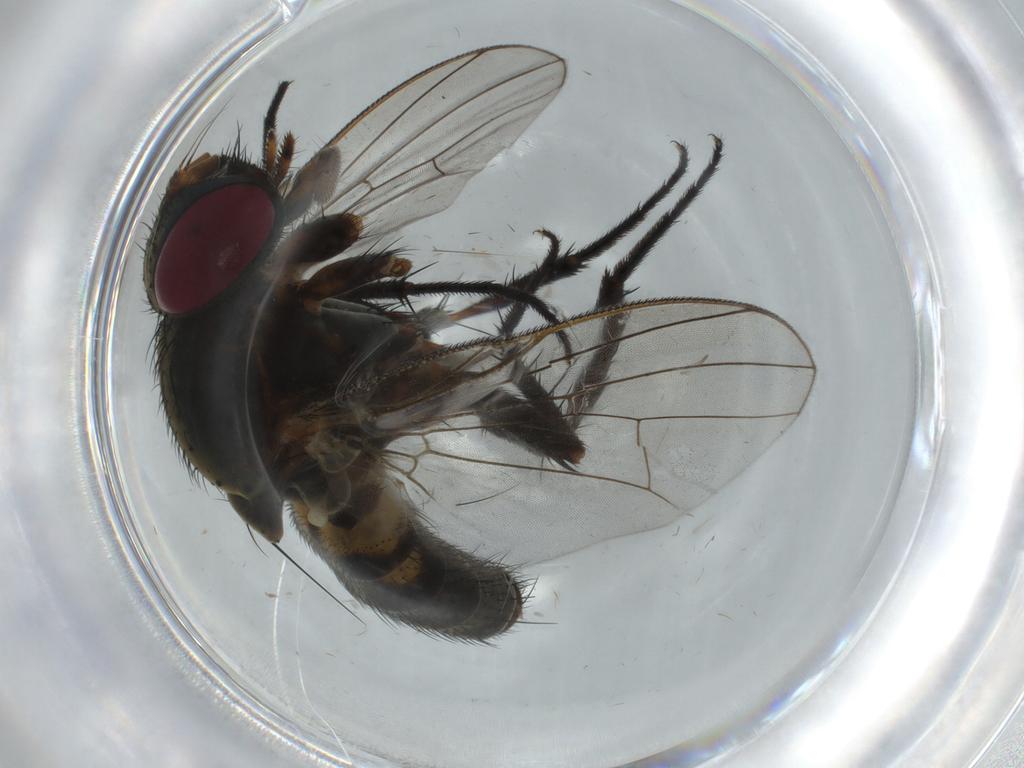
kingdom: Animalia
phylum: Arthropoda
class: Insecta
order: Diptera
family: Fannia
